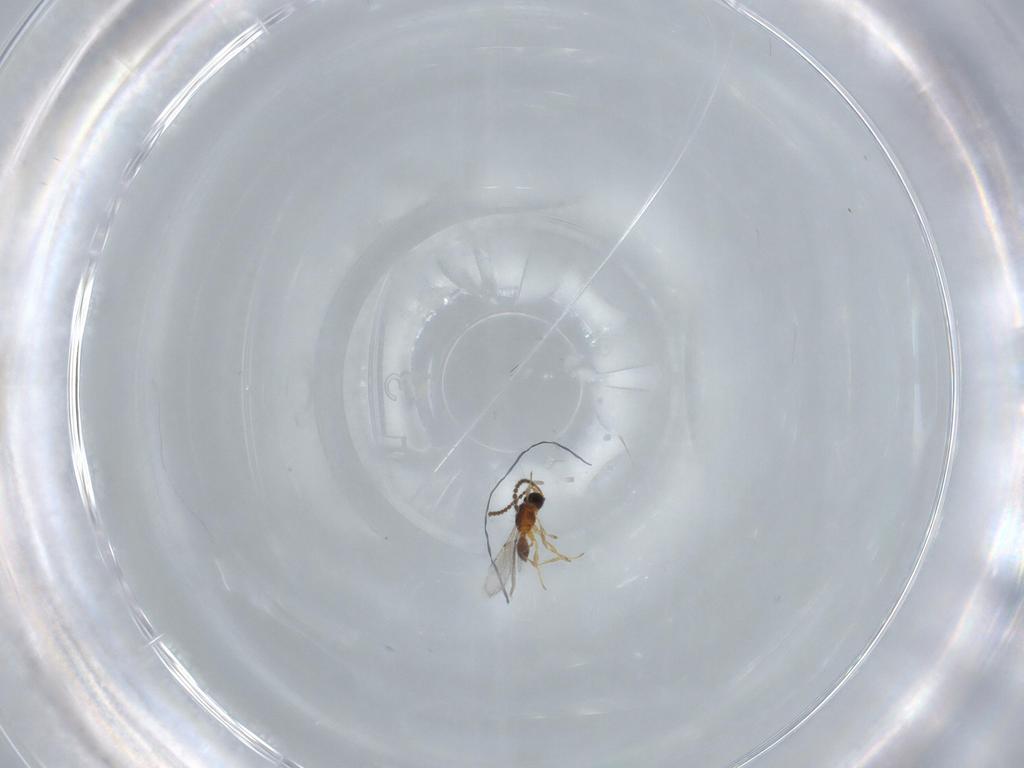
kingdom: Animalia
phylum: Arthropoda
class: Insecta
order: Hymenoptera
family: Diapriidae
